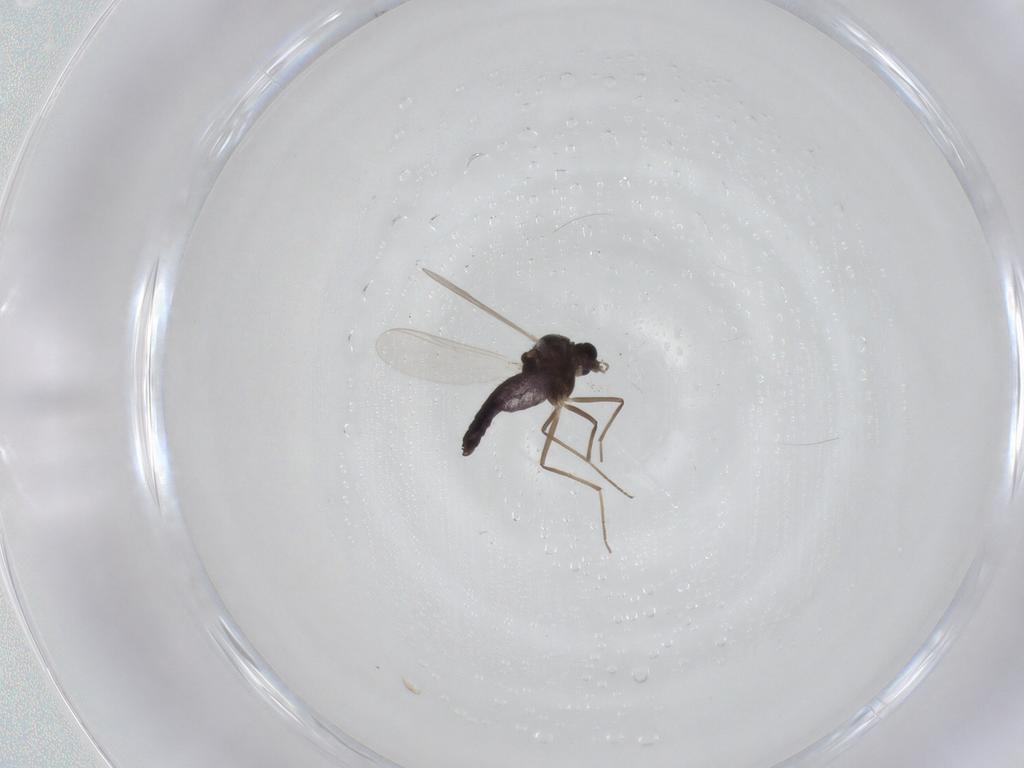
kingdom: Animalia
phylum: Arthropoda
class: Insecta
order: Diptera
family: Chironomidae
